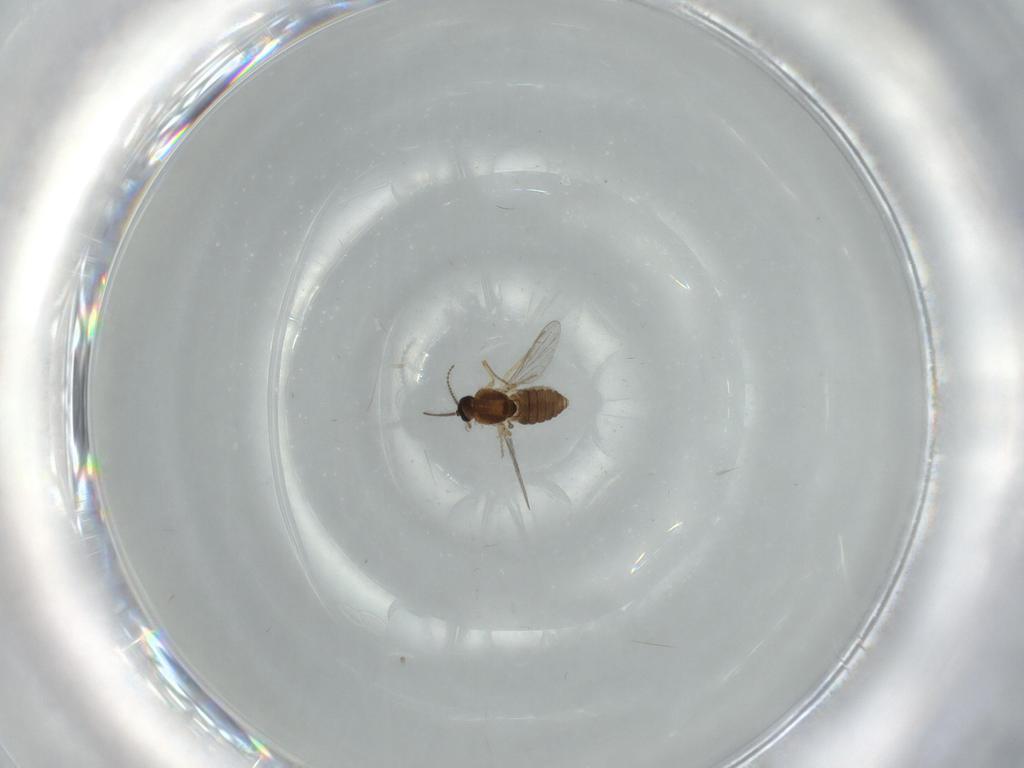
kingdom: Animalia
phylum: Arthropoda
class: Insecta
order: Diptera
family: Ceratopogonidae
